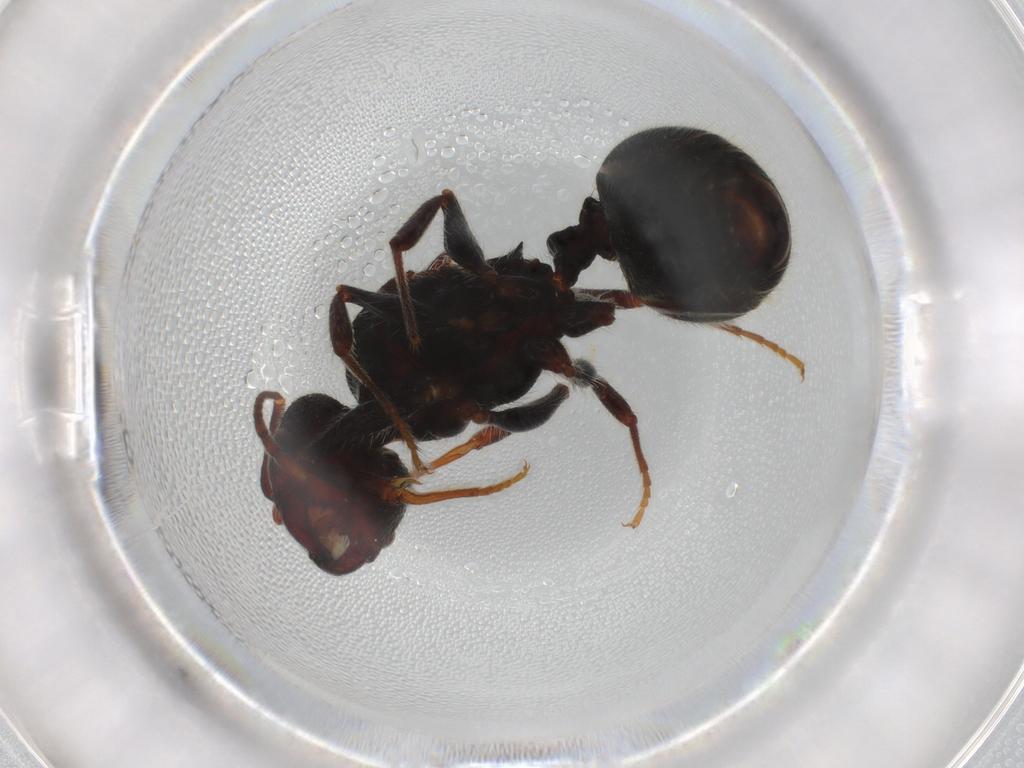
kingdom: Animalia
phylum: Arthropoda
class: Insecta
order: Hymenoptera
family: Formicidae
